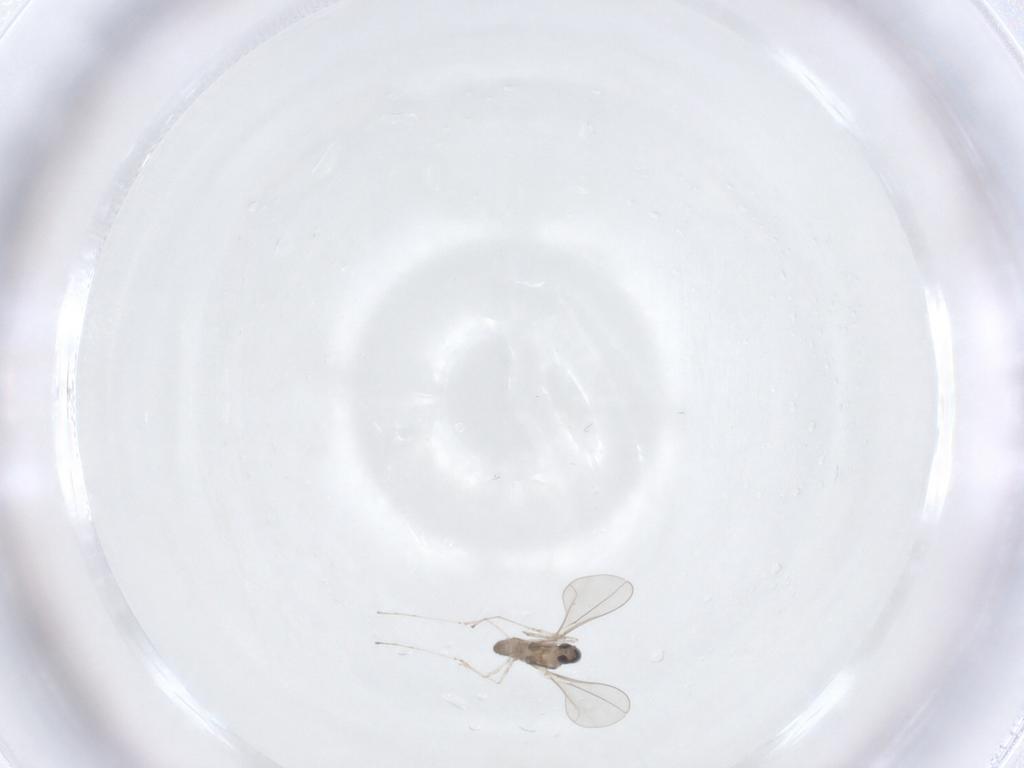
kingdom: Animalia
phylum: Arthropoda
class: Insecta
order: Diptera
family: Cecidomyiidae
